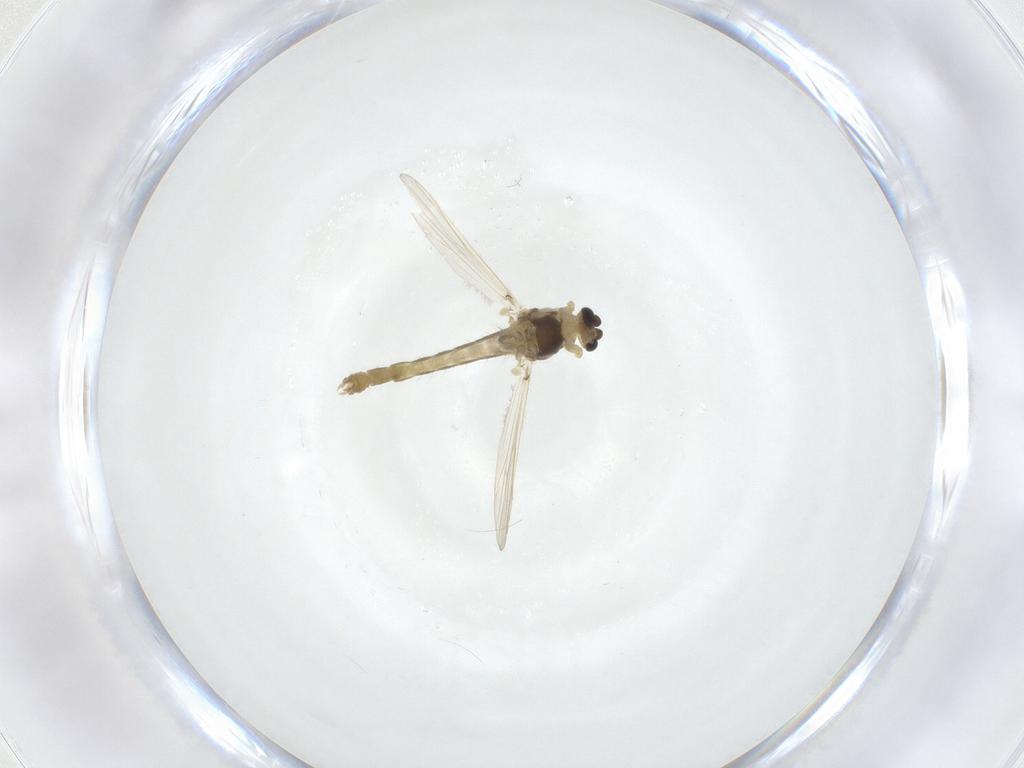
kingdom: Animalia
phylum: Arthropoda
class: Insecta
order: Diptera
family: Chironomidae
